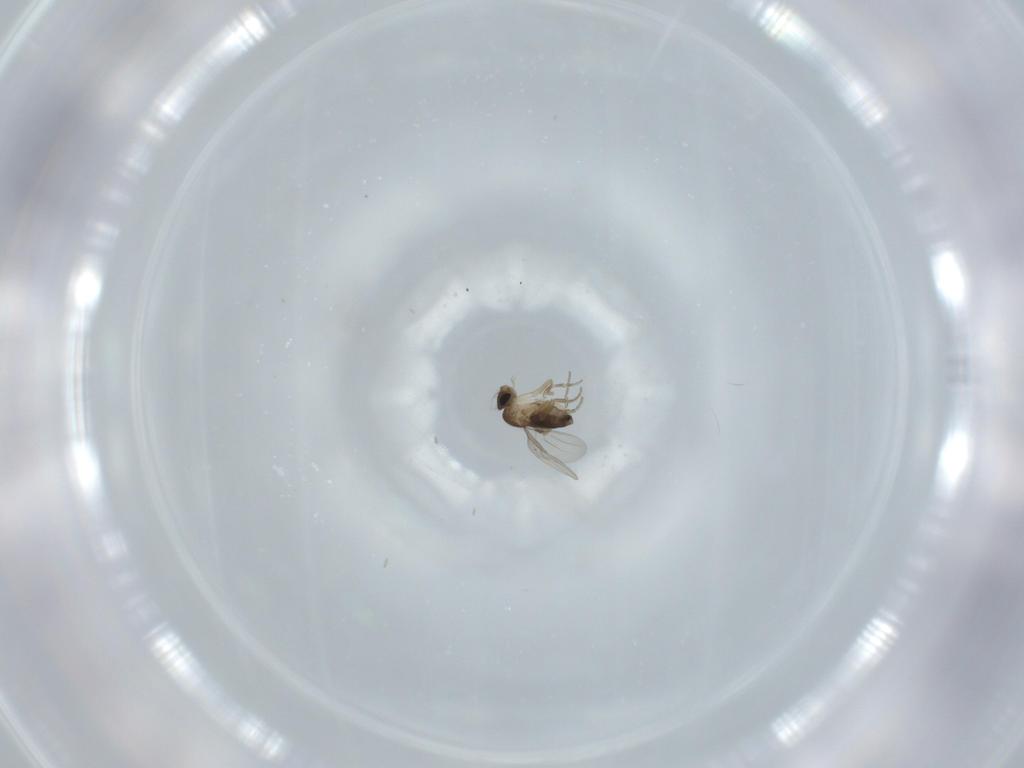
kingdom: Animalia
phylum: Arthropoda
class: Insecta
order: Diptera
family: Phoridae
